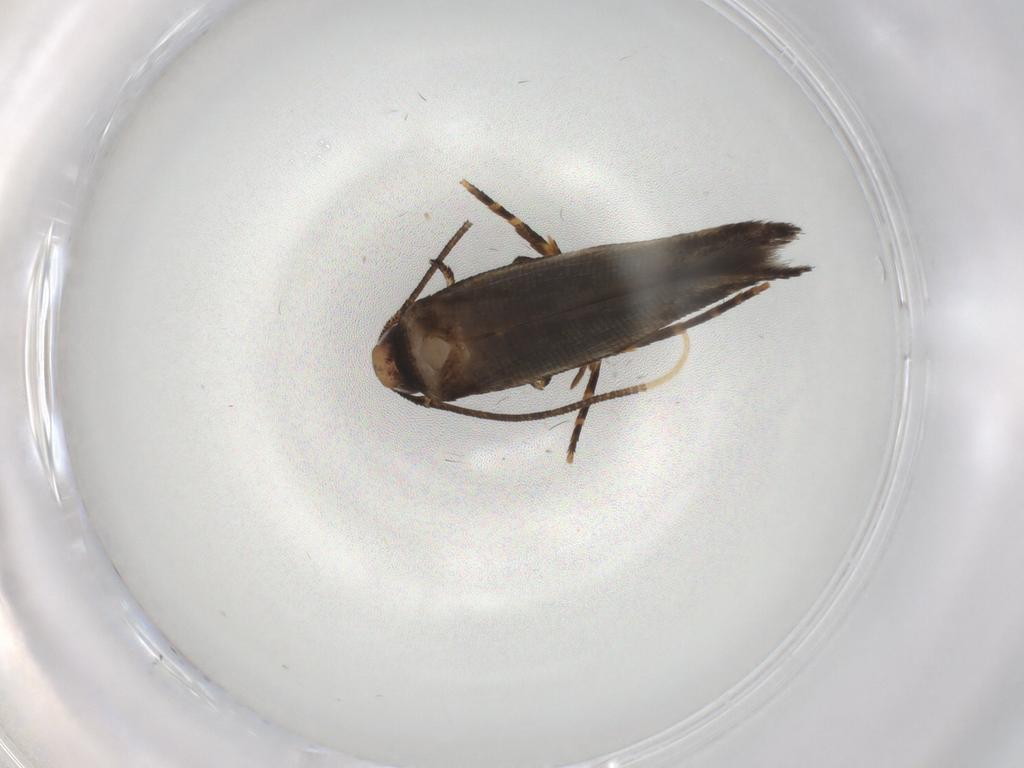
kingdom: Animalia
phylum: Arthropoda
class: Insecta
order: Lepidoptera
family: Cosmopterigidae
